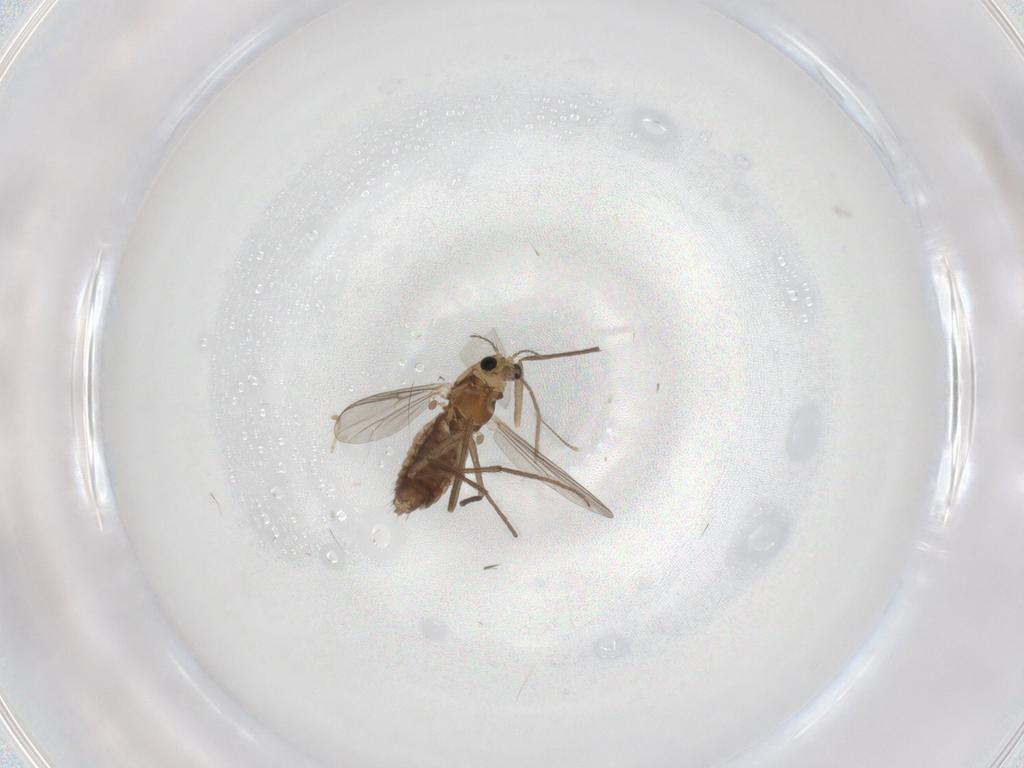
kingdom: Animalia
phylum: Arthropoda
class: Insecta
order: Diptera
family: Chironomidae
